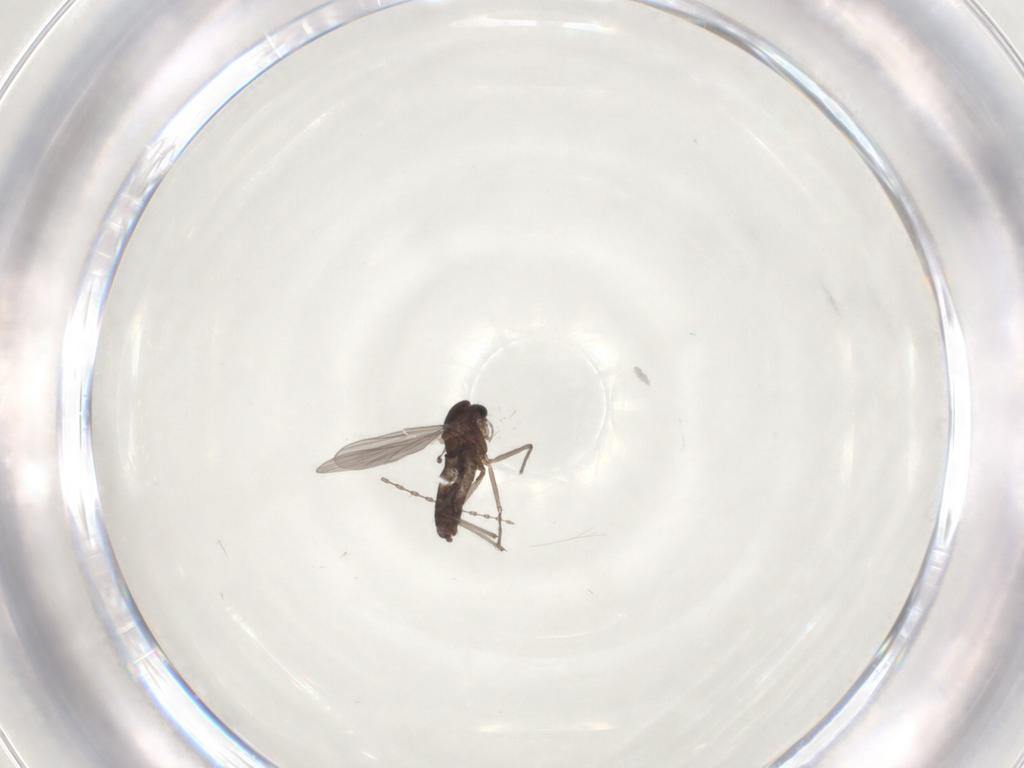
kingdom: Animalia
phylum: Arthropoda
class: Insecta
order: Diptera
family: Chironomidae
